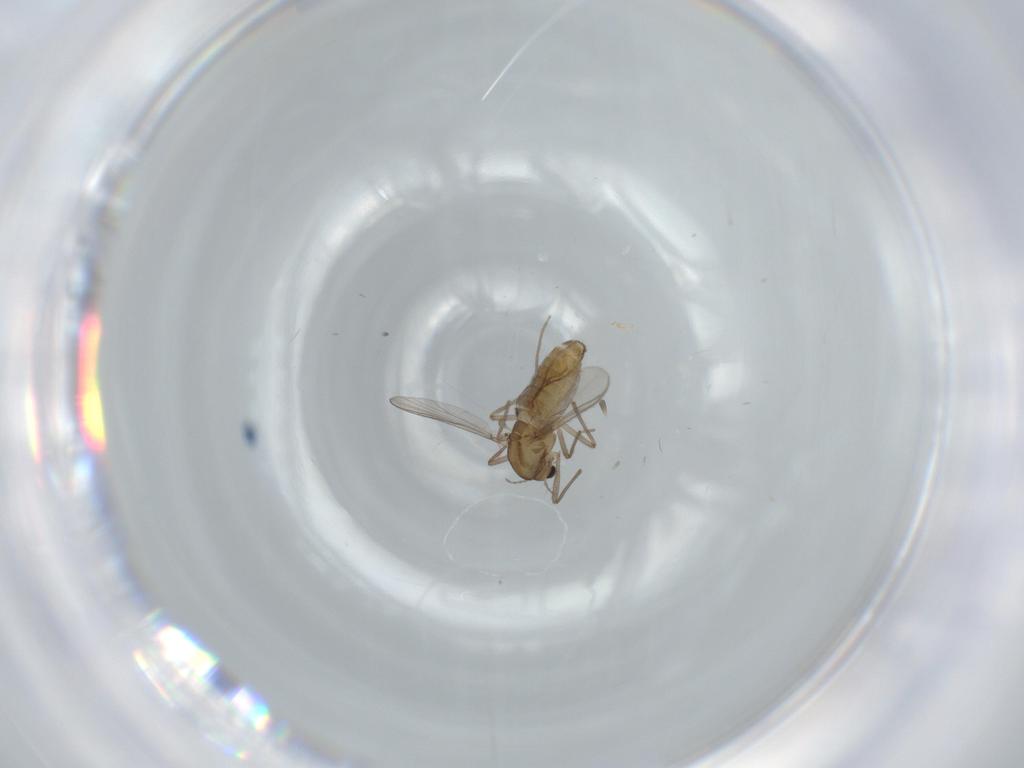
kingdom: Animalia
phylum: Arthropoda
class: Insecta
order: Diptera
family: Chironomidae
